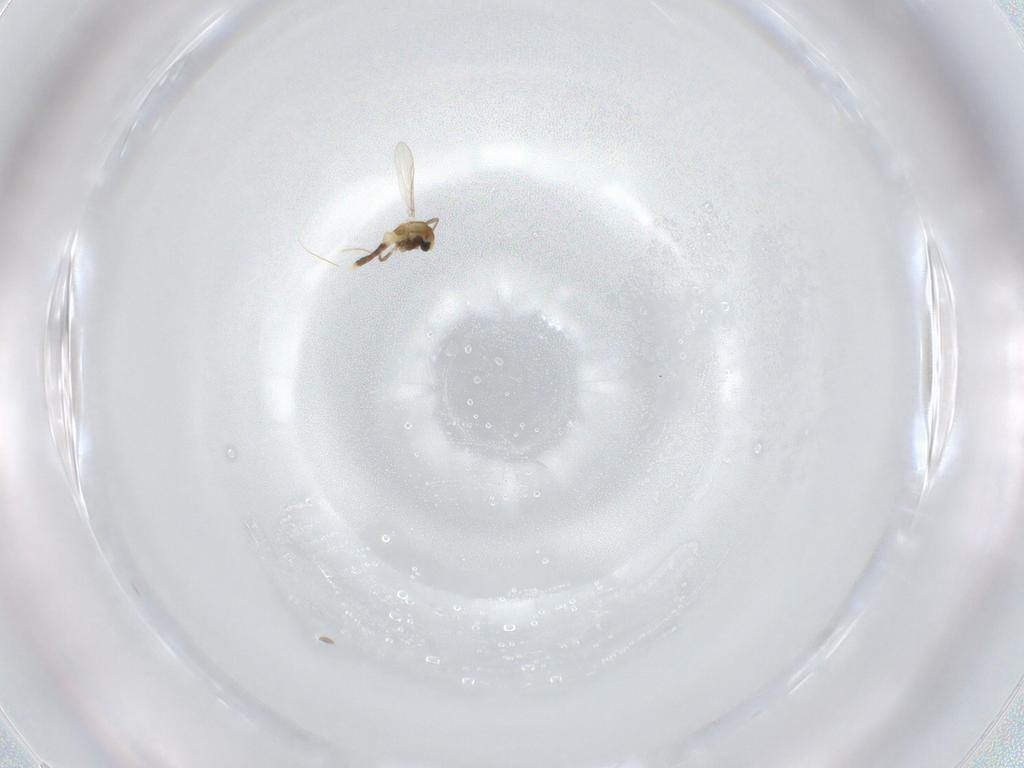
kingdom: Animalia
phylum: Arthropoda
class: Insecta
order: Diptera
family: Chironomidae
